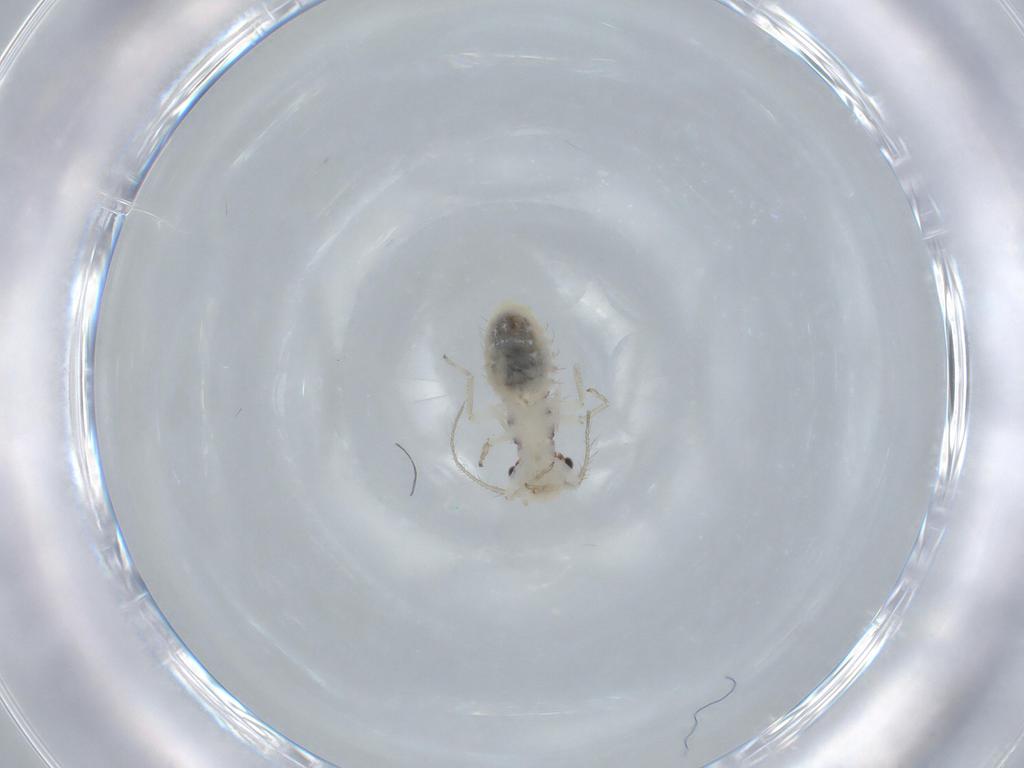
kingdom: Animalia
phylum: Arthropoda
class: Insecta
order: Psocodea
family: Pseudocaeciliidae
